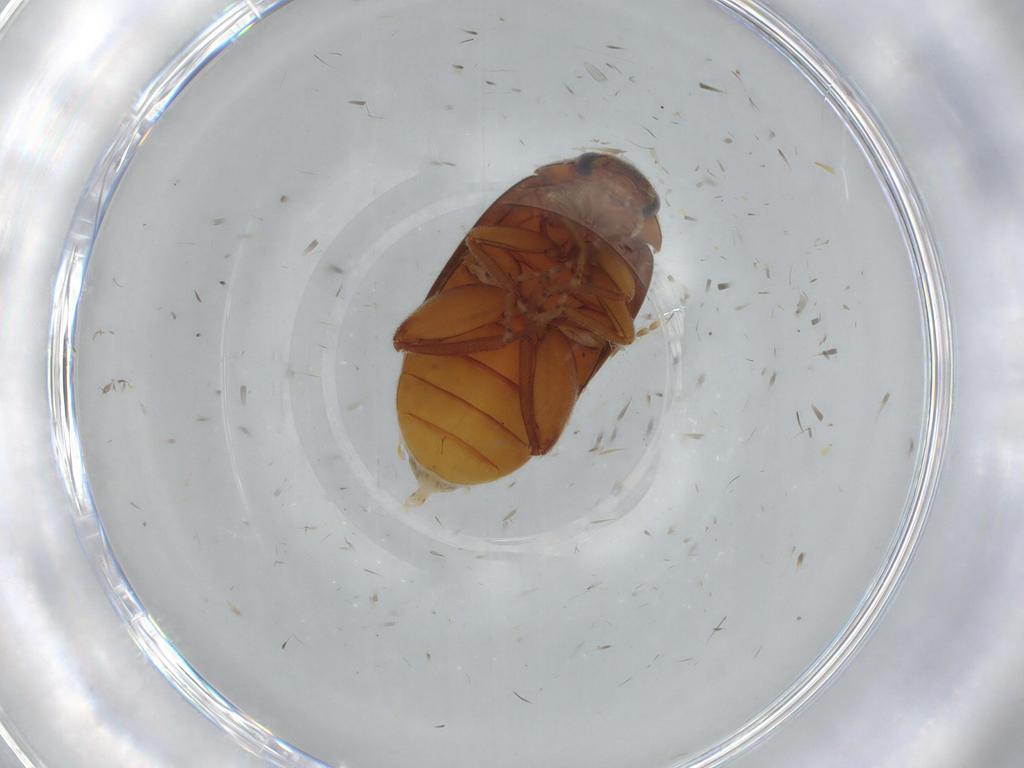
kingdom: Animalia
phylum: Arthropoda
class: Insecta
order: Coleoptera
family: Scirtidae
